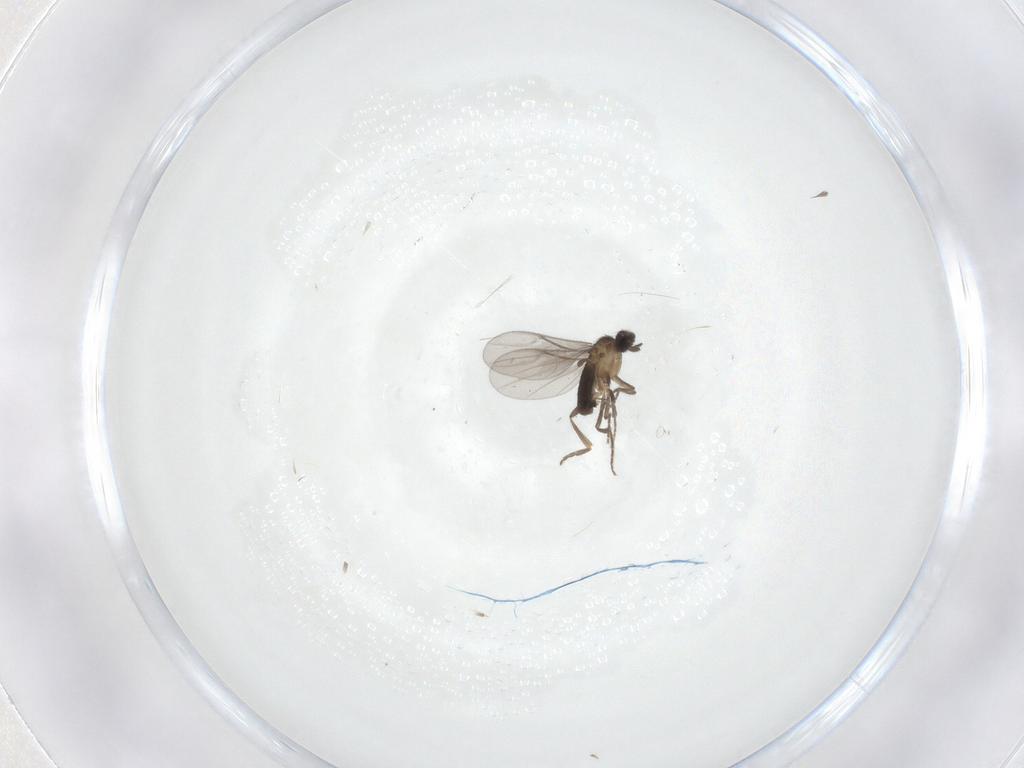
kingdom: Animalia
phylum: Arthropoda
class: Insecta
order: Diptera
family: Phoridae
